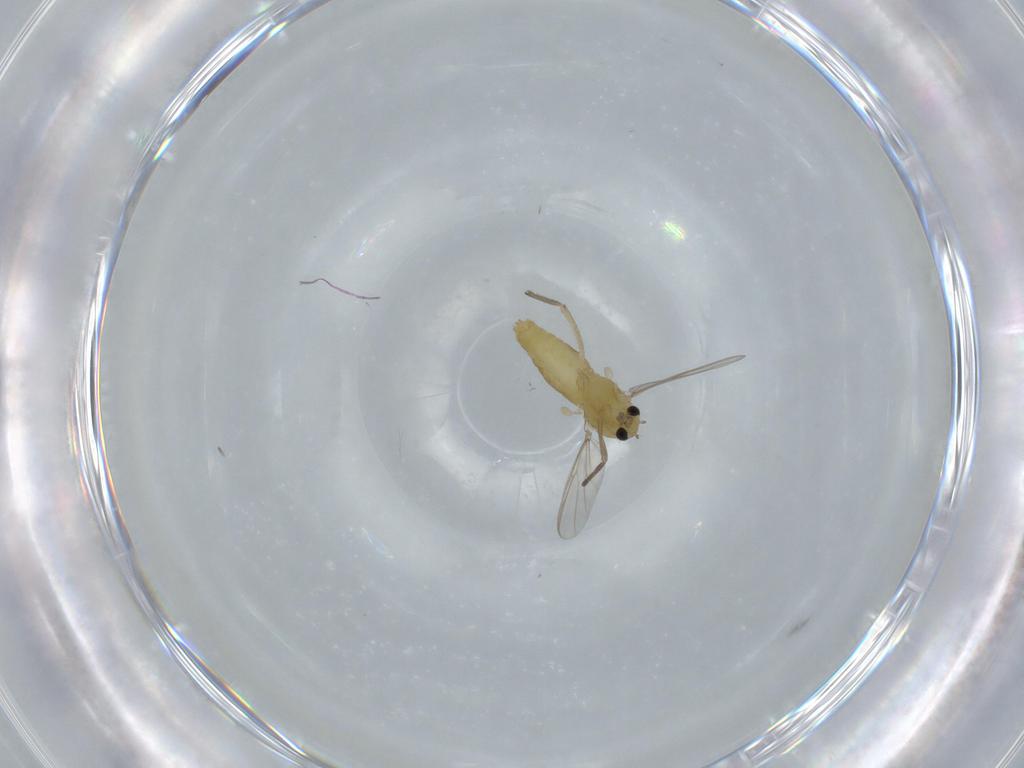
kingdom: Animalia
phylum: Arthropoda
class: Insecta
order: Diptera
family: Chironomidae
